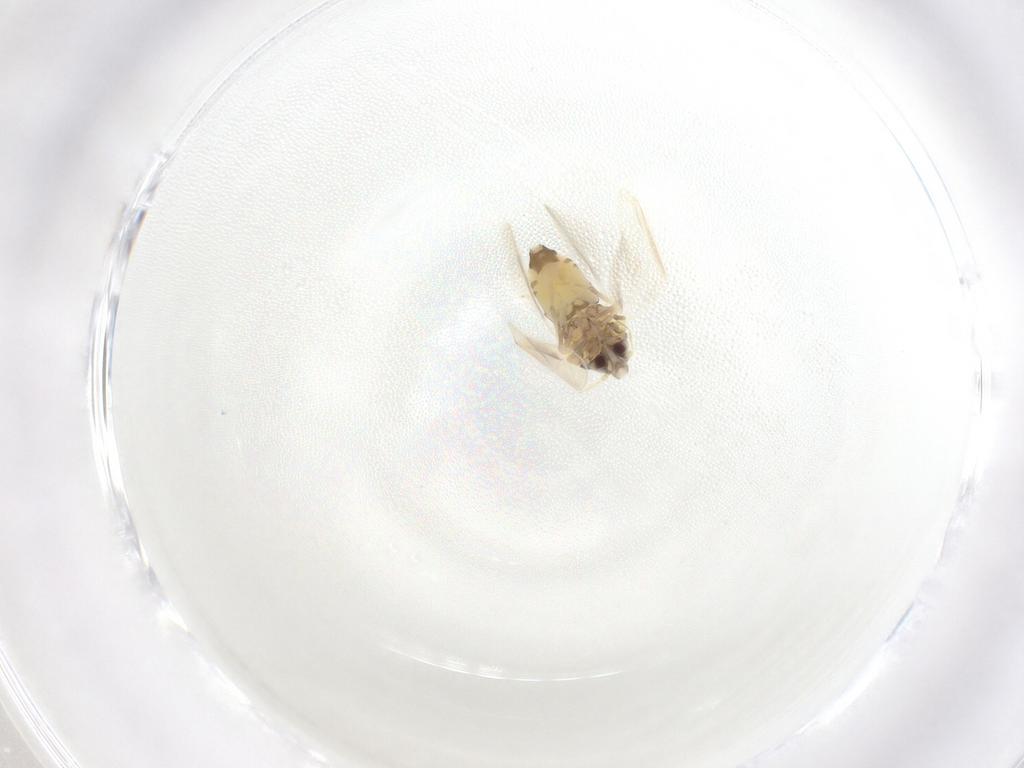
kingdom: Animalia
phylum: Arthropoda
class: Insecta
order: Hemiptera
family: Aleyrodidae
